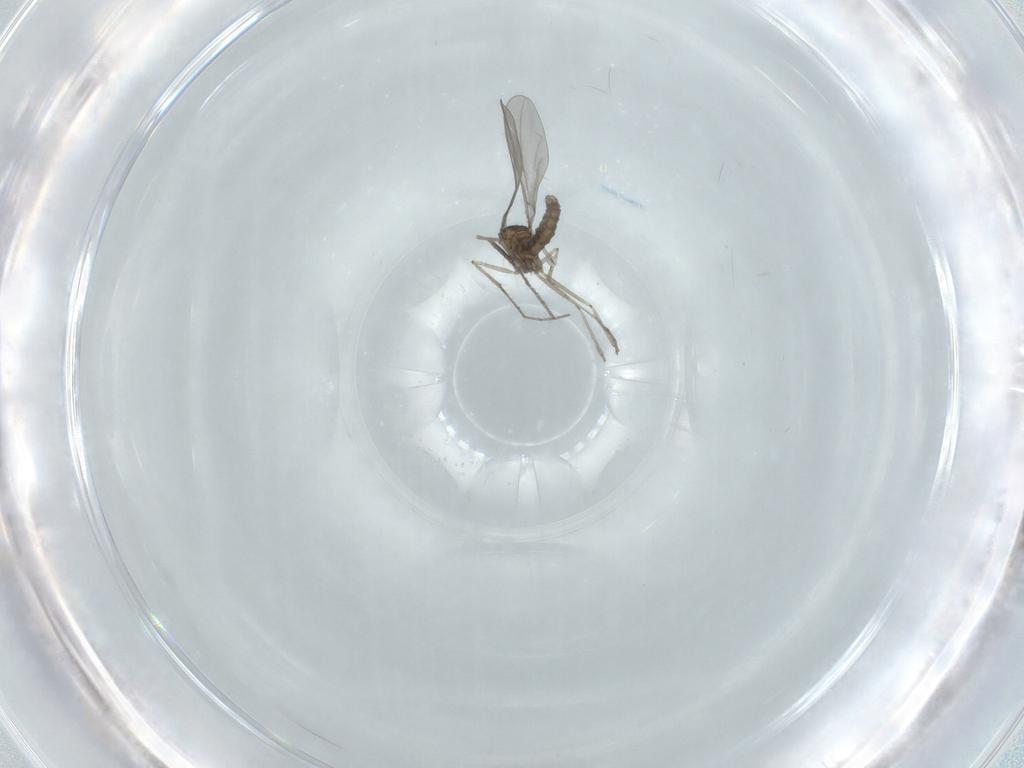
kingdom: Animalia
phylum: Arthropoda
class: Insecta
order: Diptera
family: Cecidomyiidae
